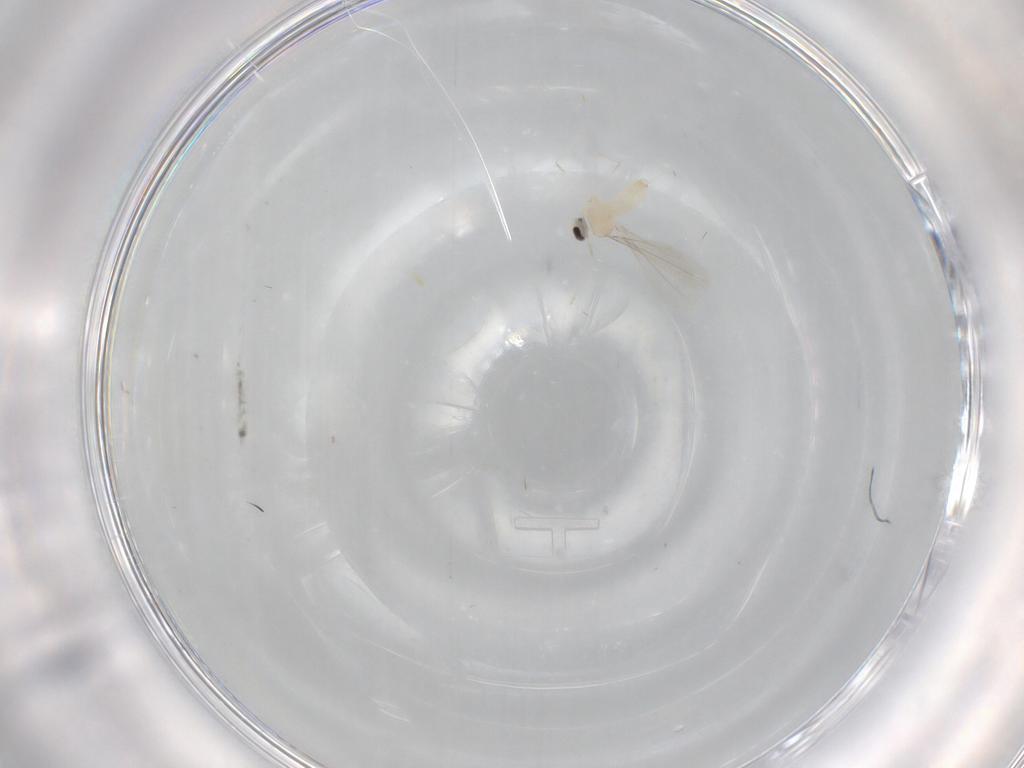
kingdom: Animalia
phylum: Arthropoda
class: Insecta
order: Diptera
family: Cecidomyiidae
